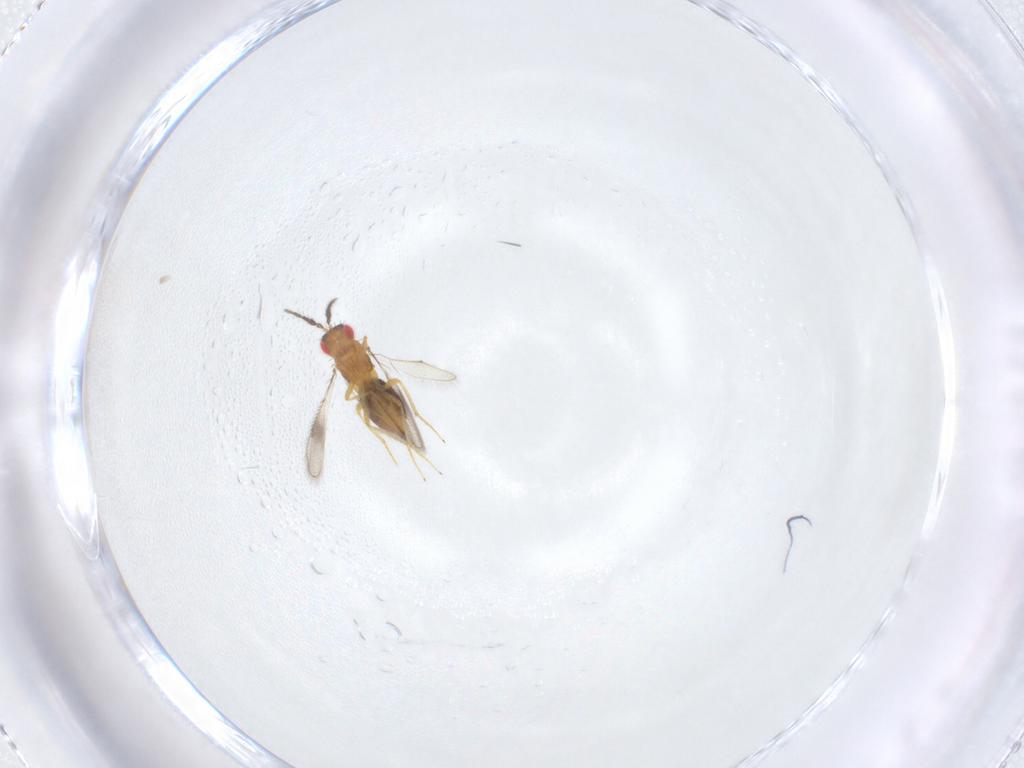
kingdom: Animalia
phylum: Arthropoda
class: Insecta
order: Hymenoptera
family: Eulophidae
